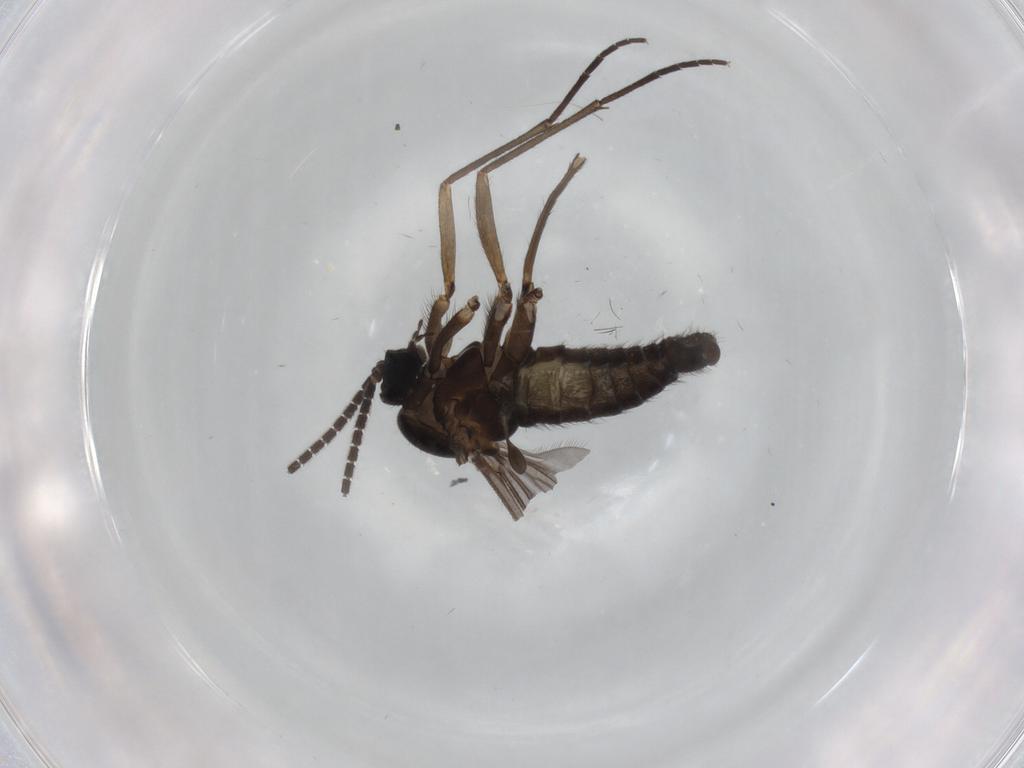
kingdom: Animalia
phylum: Arthropoda
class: Insecta
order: Diptera
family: Sciaridae
